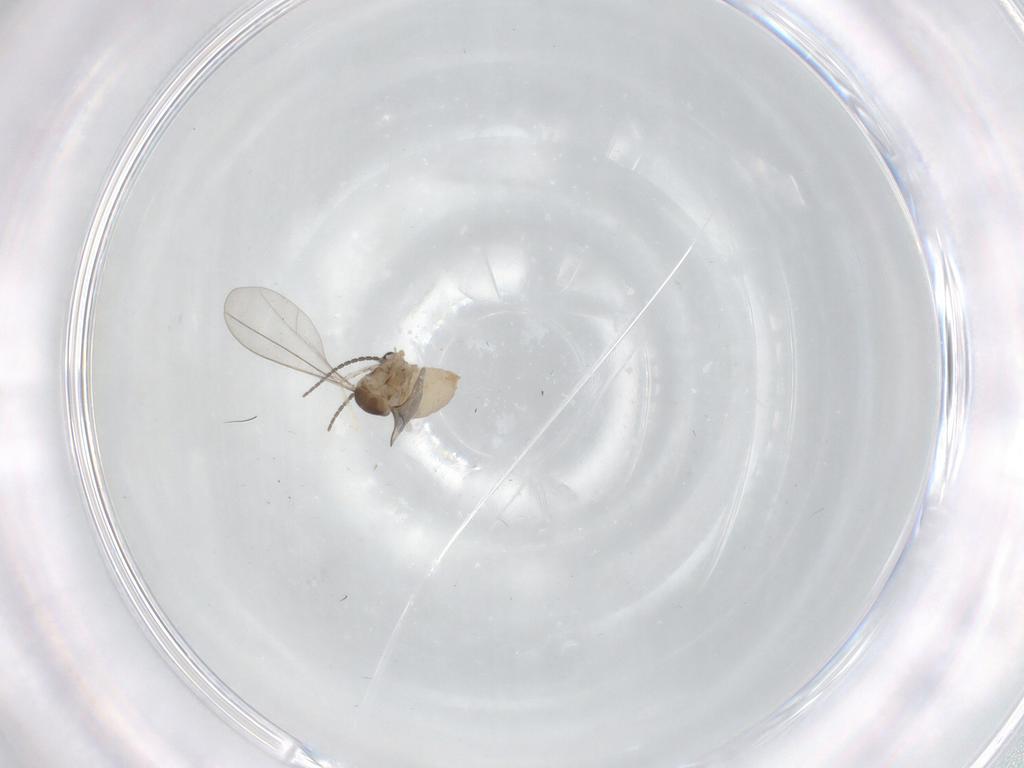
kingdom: Animalia
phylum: Arthropoda
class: Insecta
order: Diptera
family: Cecidomyiidae
